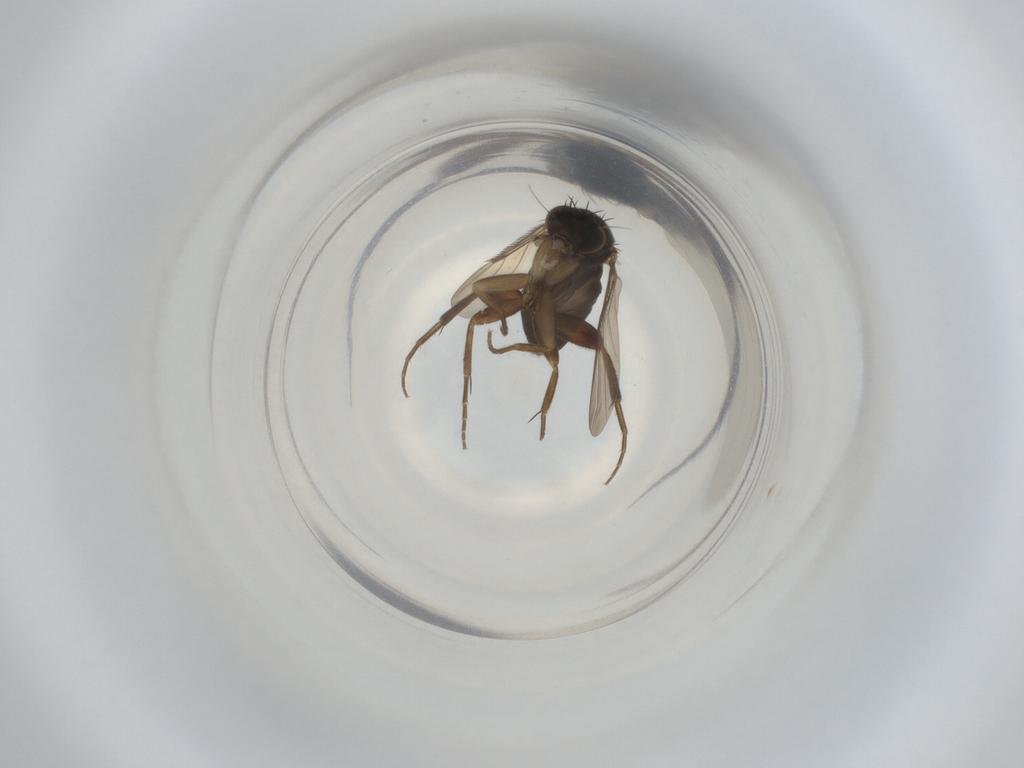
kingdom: Animalia
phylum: Arthropoda
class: Insecta
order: Diptera
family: Phoridae
